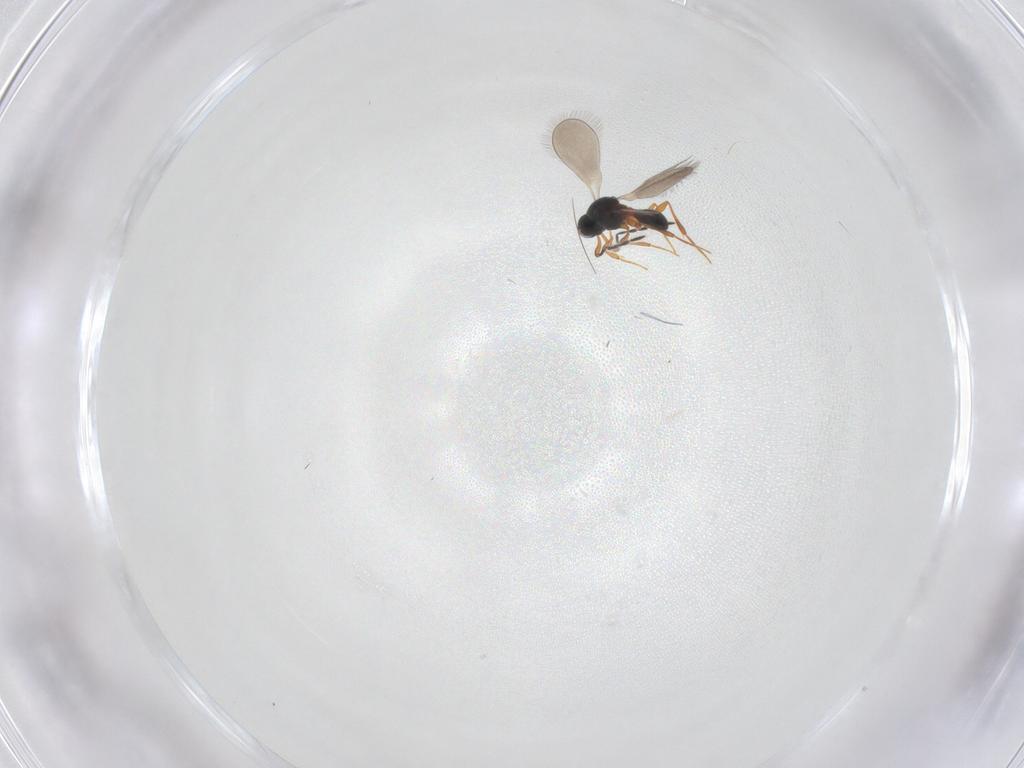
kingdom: Animalia
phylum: Arthropoda
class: Insecta
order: Hymenoptera
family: Platygastridae
